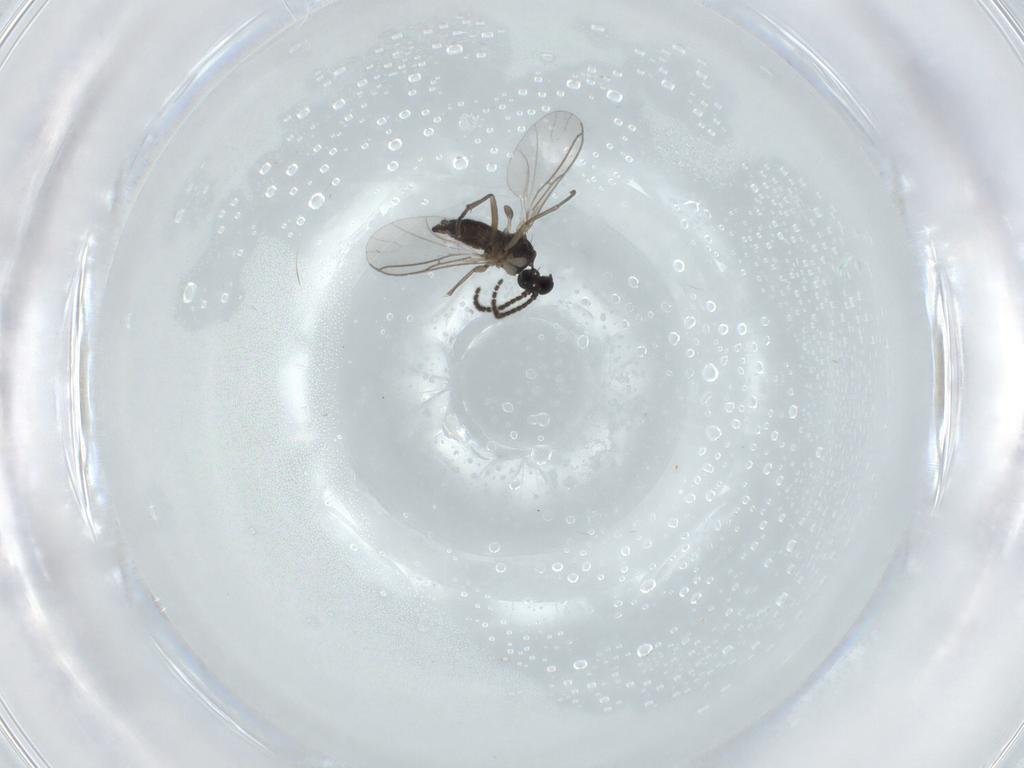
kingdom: Animalia
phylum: Arthropoda
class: Insecta
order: Diptera
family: Sciaridae
